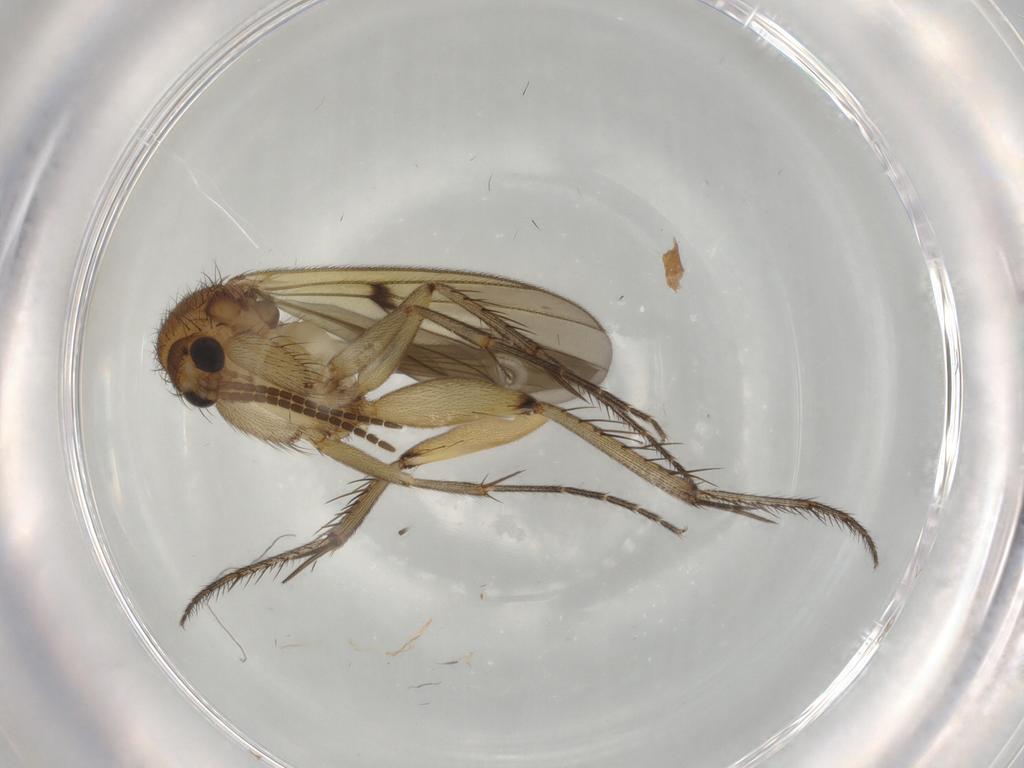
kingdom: Animalia
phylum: Arthropoda
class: Insecta
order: Diptera
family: Mycetophilidae
